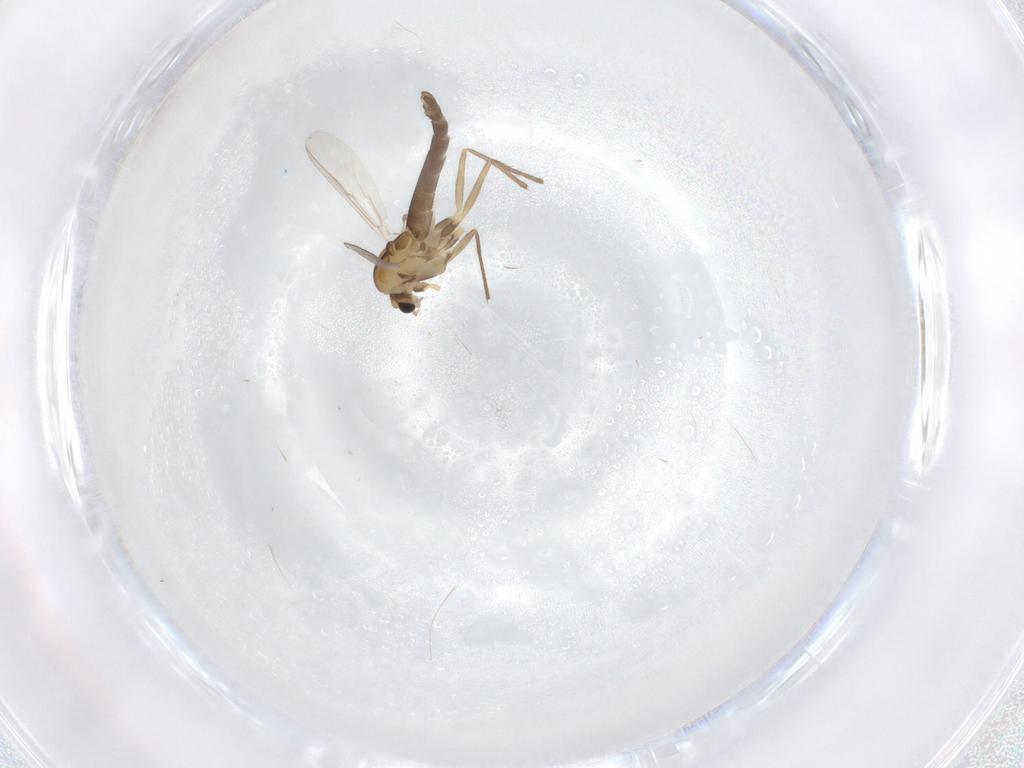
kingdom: Animalia
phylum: Arthropoda
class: Insecta
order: Diptera
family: Chironomidae
